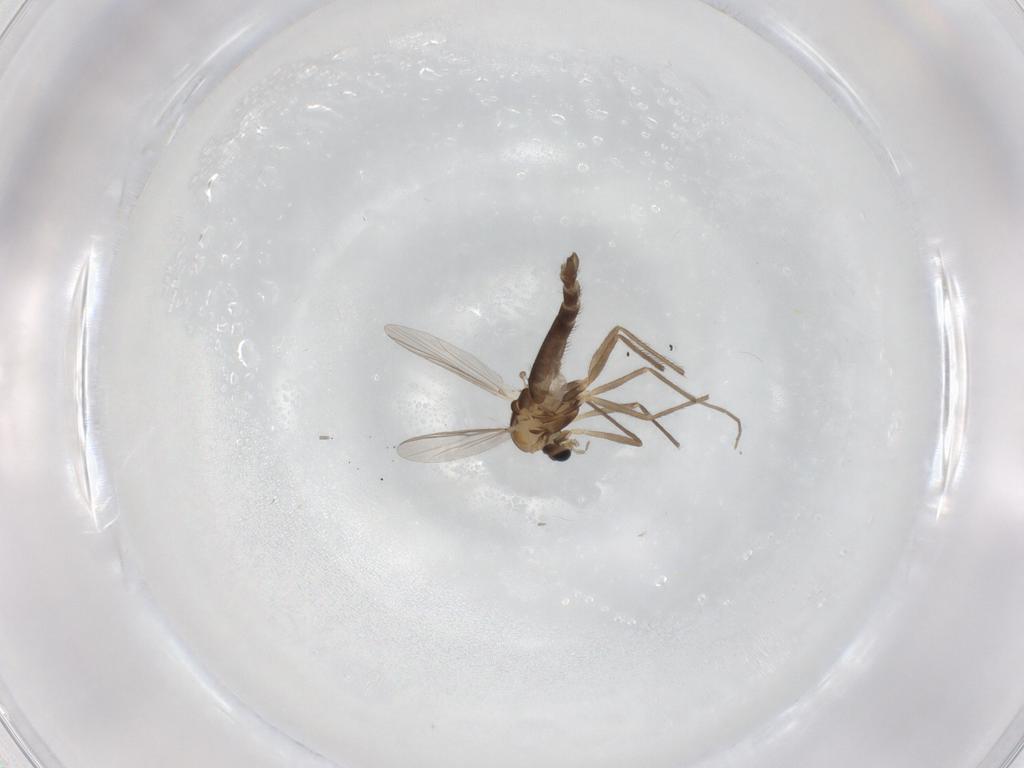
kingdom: Animalia
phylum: Arthropoda
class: Insecta
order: Diptera
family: Chironomidae
